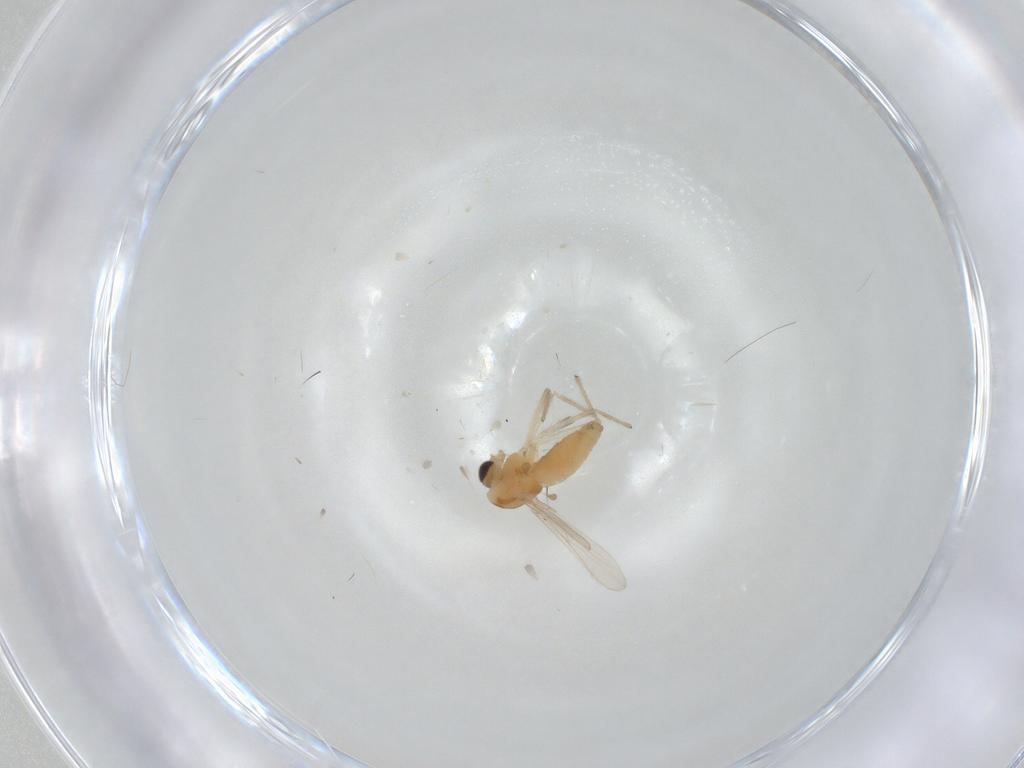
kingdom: Animalia
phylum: Arthropoda
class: Insecta
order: Diptera
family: Chironomidae
